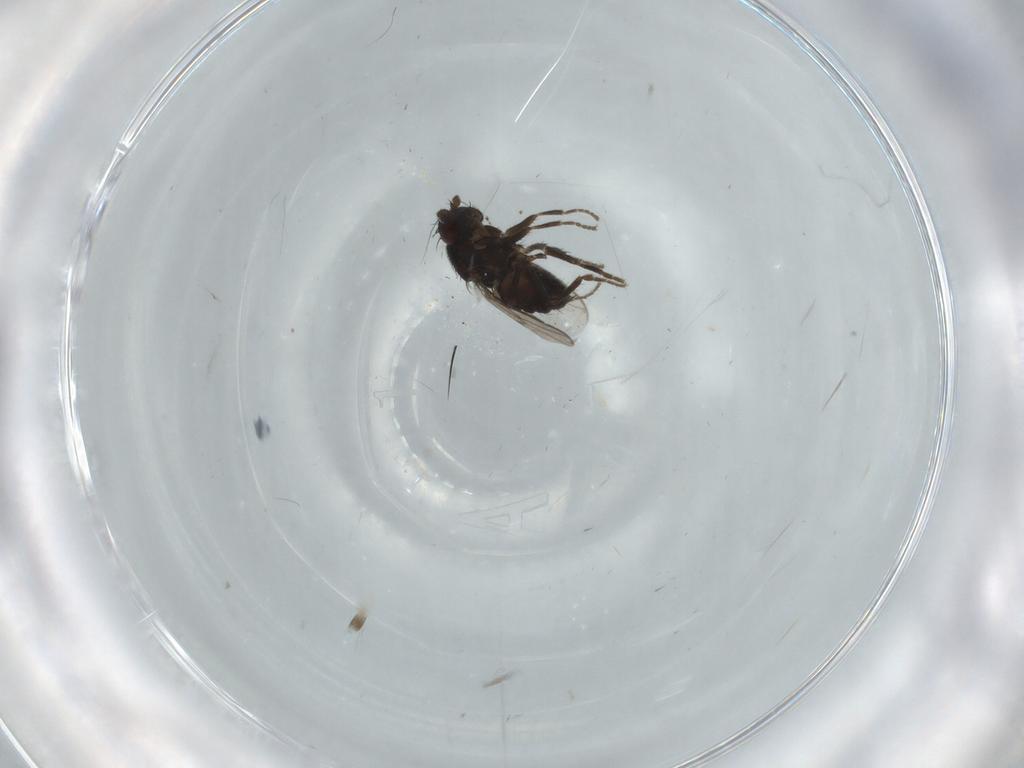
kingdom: Animalia
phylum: Arthropoda
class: Insecta
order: Diptera
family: Sphaeroceridae
